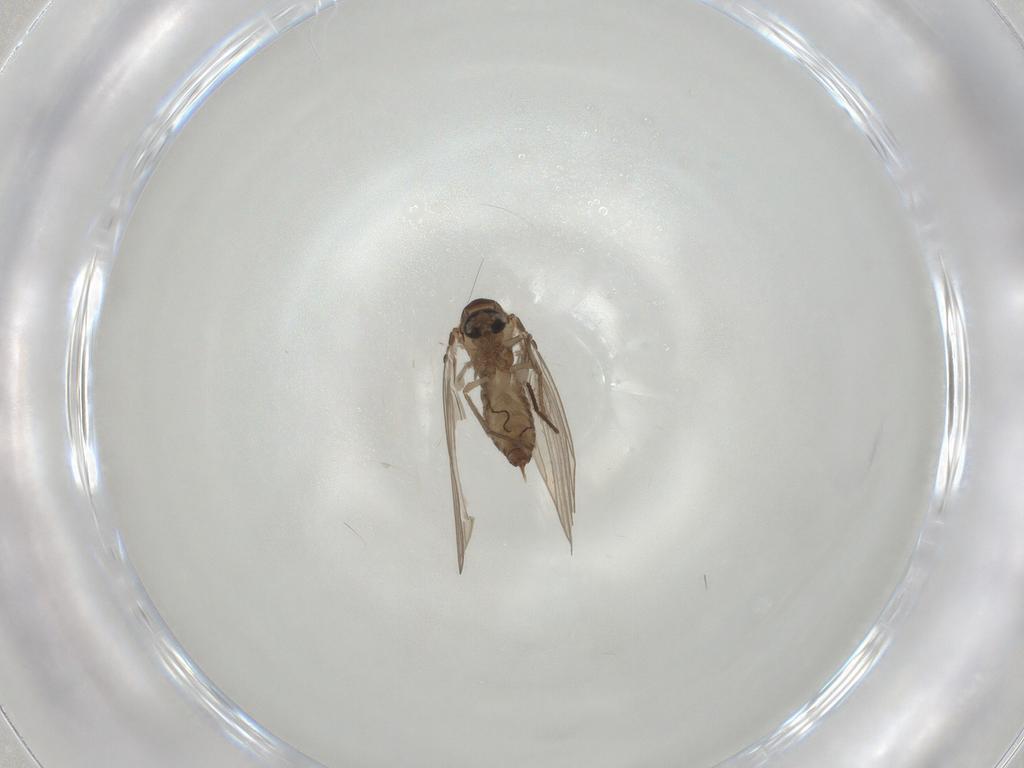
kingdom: Animalia
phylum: Arthropoda
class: Insecta
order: Diptera
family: Psychodidae
